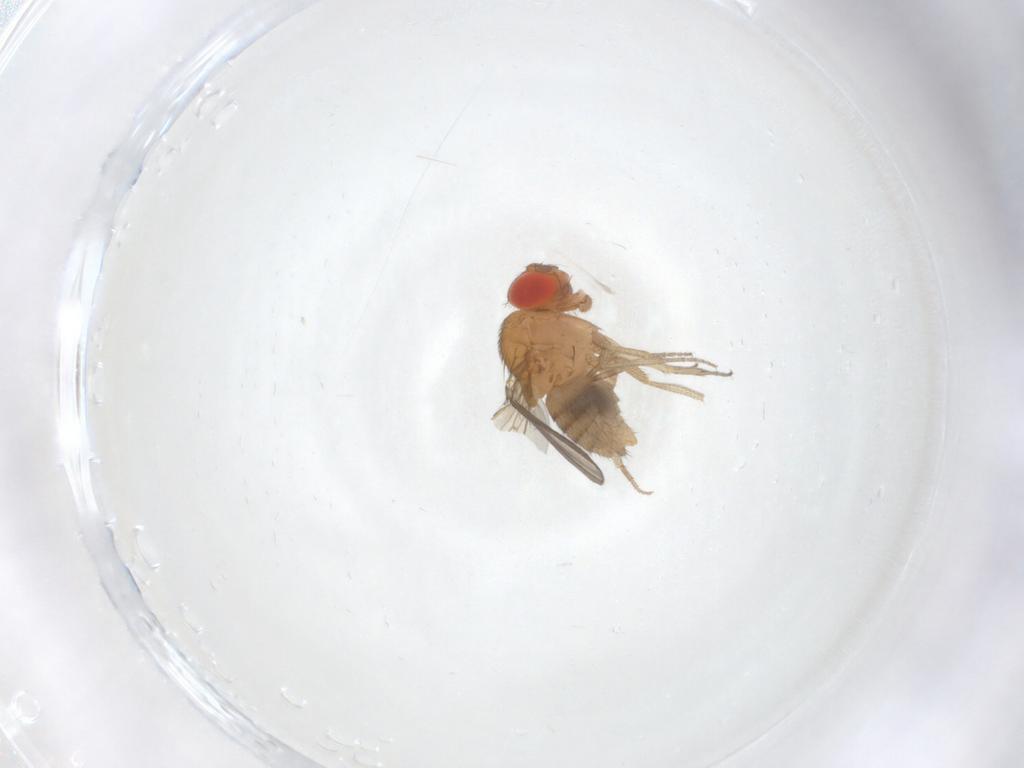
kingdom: Animalia
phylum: Arthropoda
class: Insecta
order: Diptera
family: Drosophilidae
